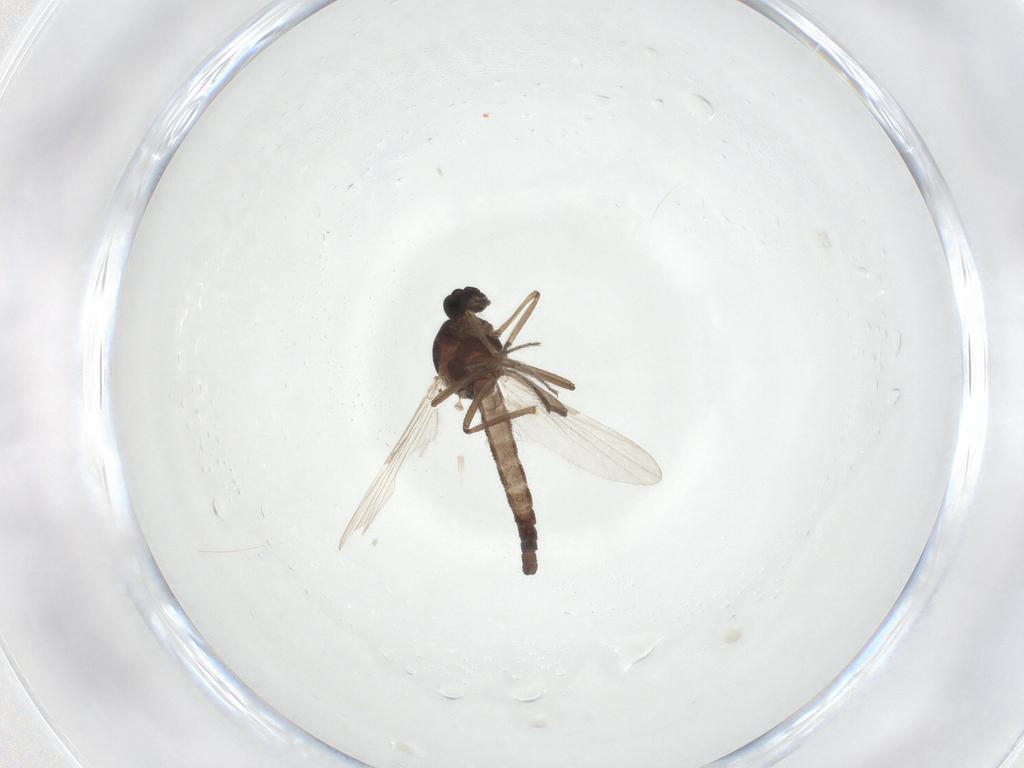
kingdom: Animalia
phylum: Arthropoda
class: Insecta
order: Diptera
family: Ceratopogonidae
